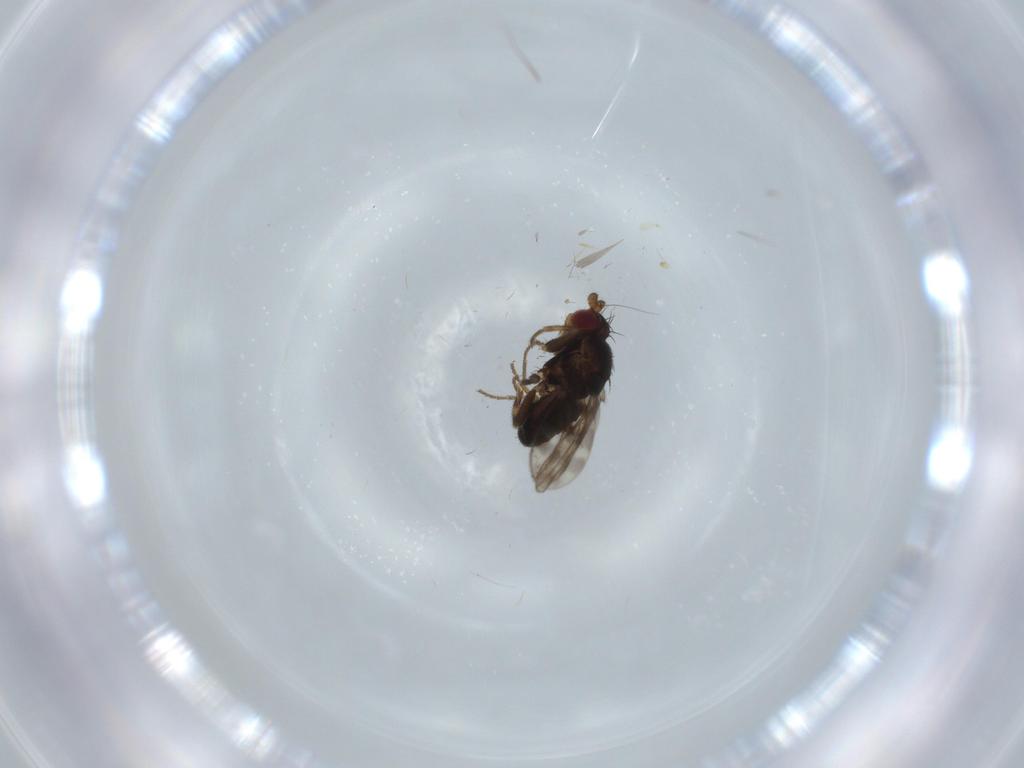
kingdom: Animalia
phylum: Arthropoda
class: Insecta
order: Diptera
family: Sphaeroceridae
